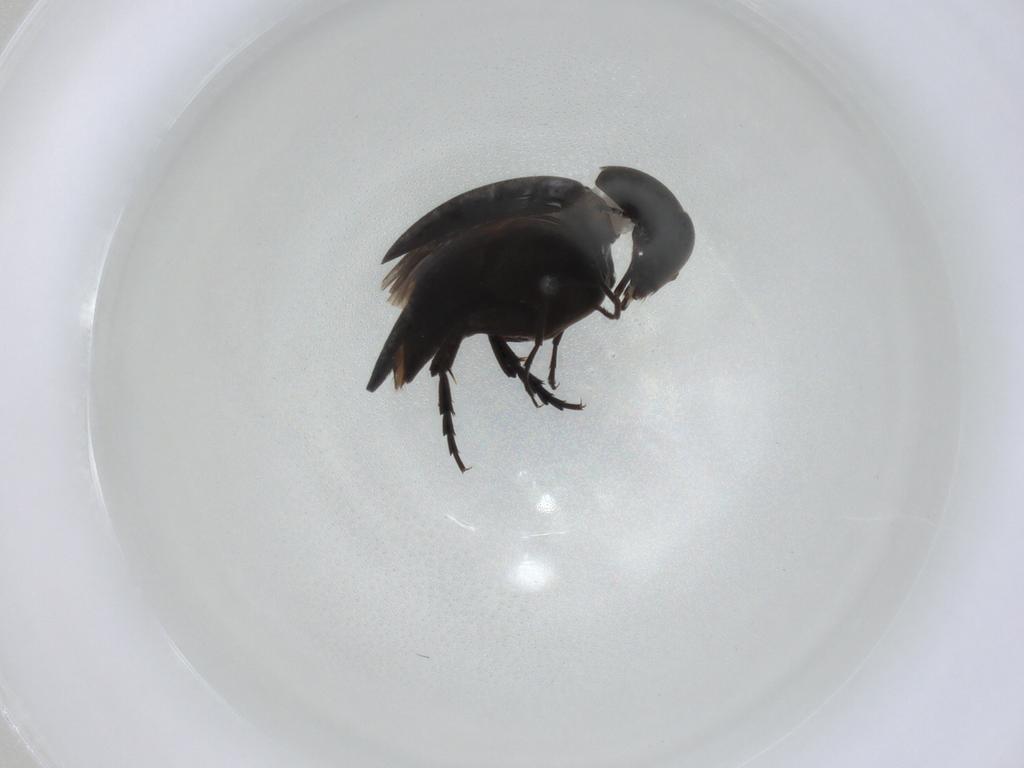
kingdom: Animalia
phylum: Arthropoda
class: Insecta
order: Coleoptera
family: Mordellidae
